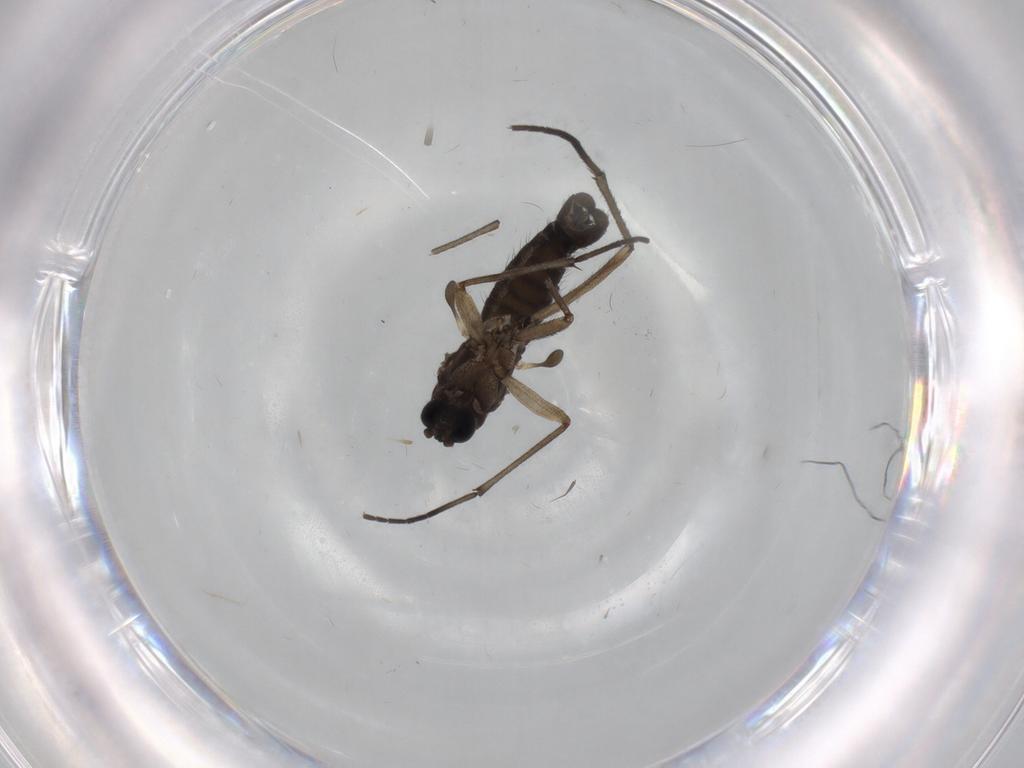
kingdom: Animalia
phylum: Arthropoda
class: Insecta
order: Diptera
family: Sciaridae
